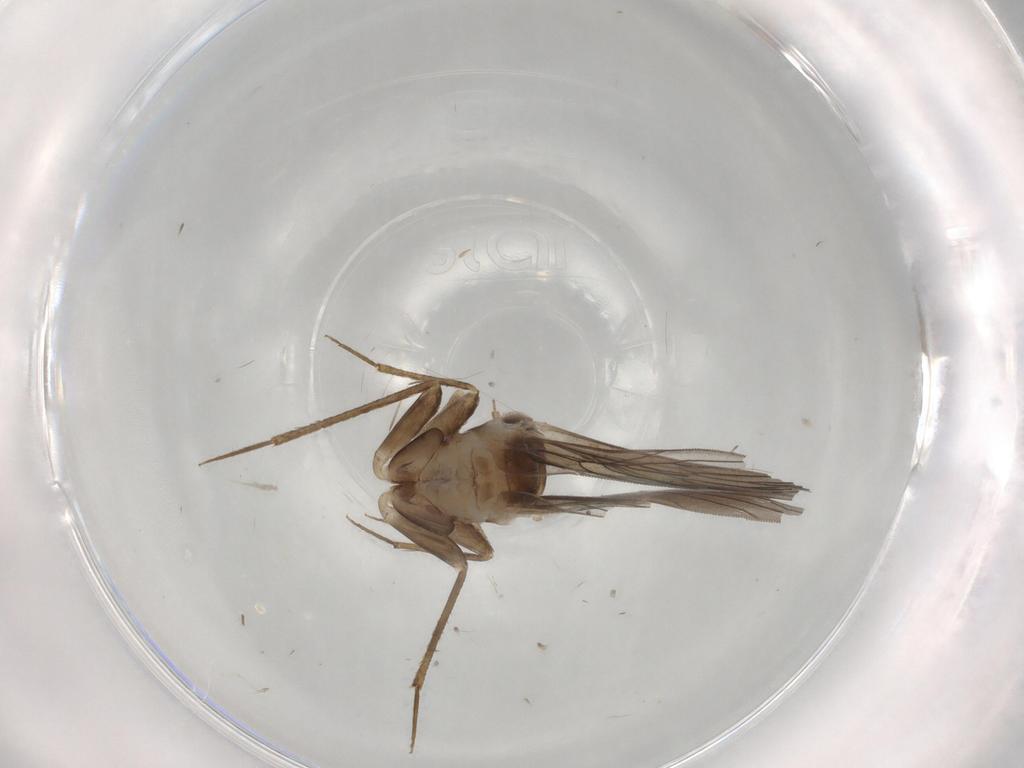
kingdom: Animalia
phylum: Arthropoda
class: Insecta
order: Psocodea
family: Lepidopsocidae
